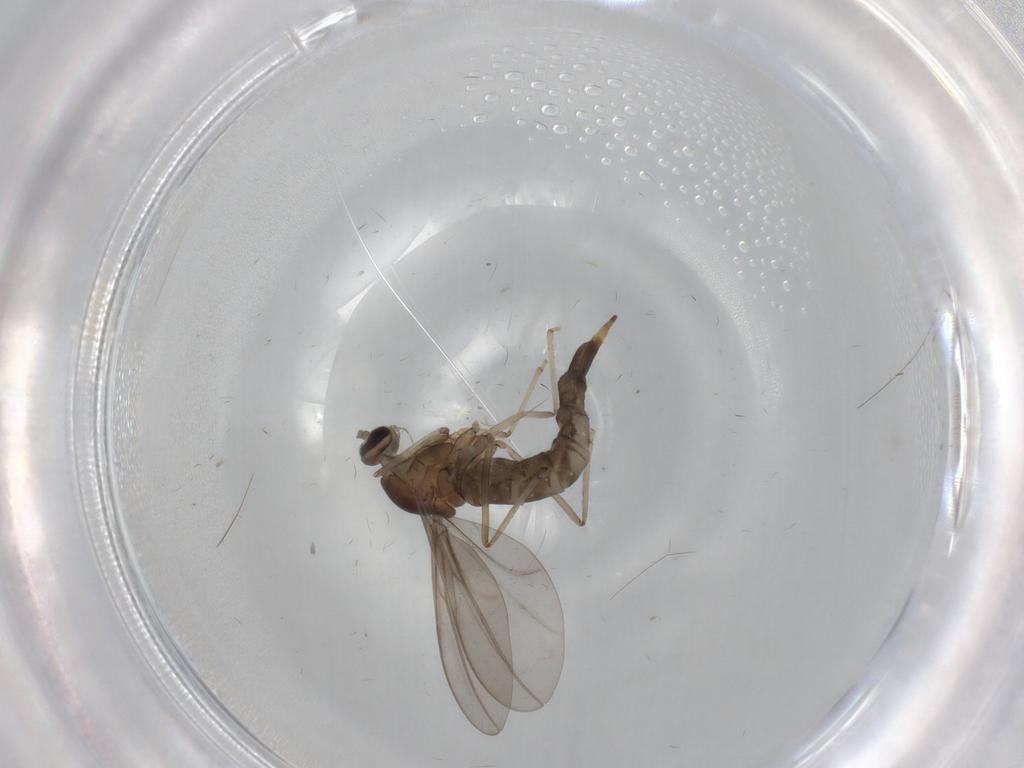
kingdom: Animalia
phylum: Arthropoda
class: Insecta
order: Diptera
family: Cecidomyiidae
